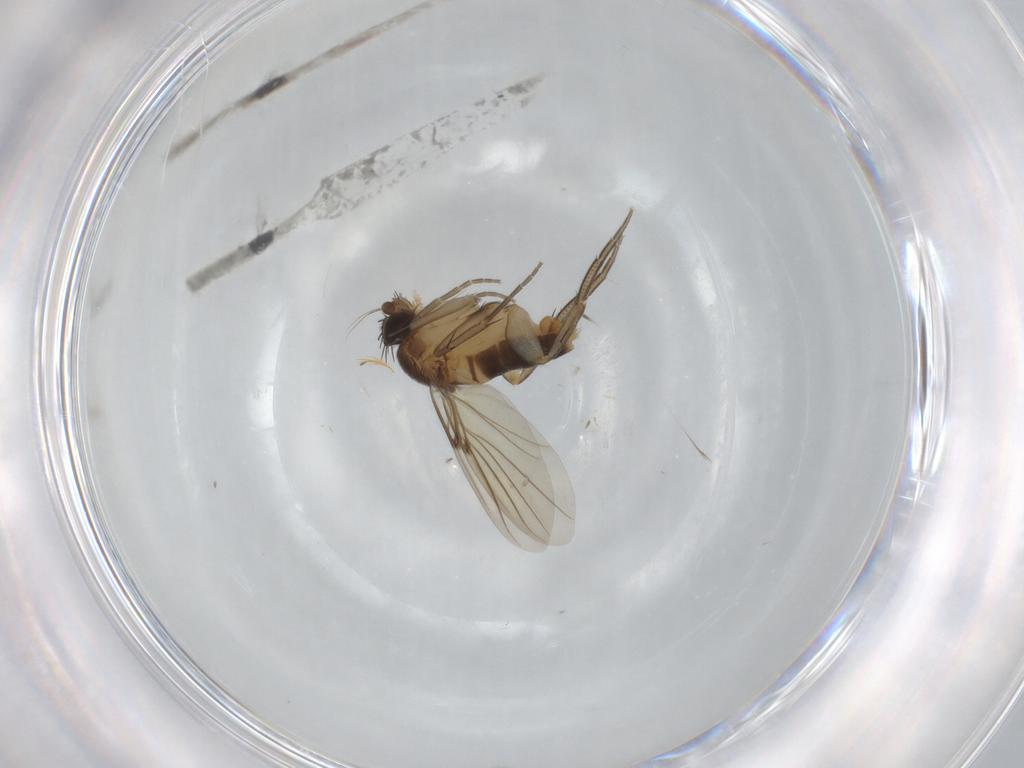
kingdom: Animalia
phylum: Arthropoda
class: Insecta
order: Diptera
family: Phoridae
